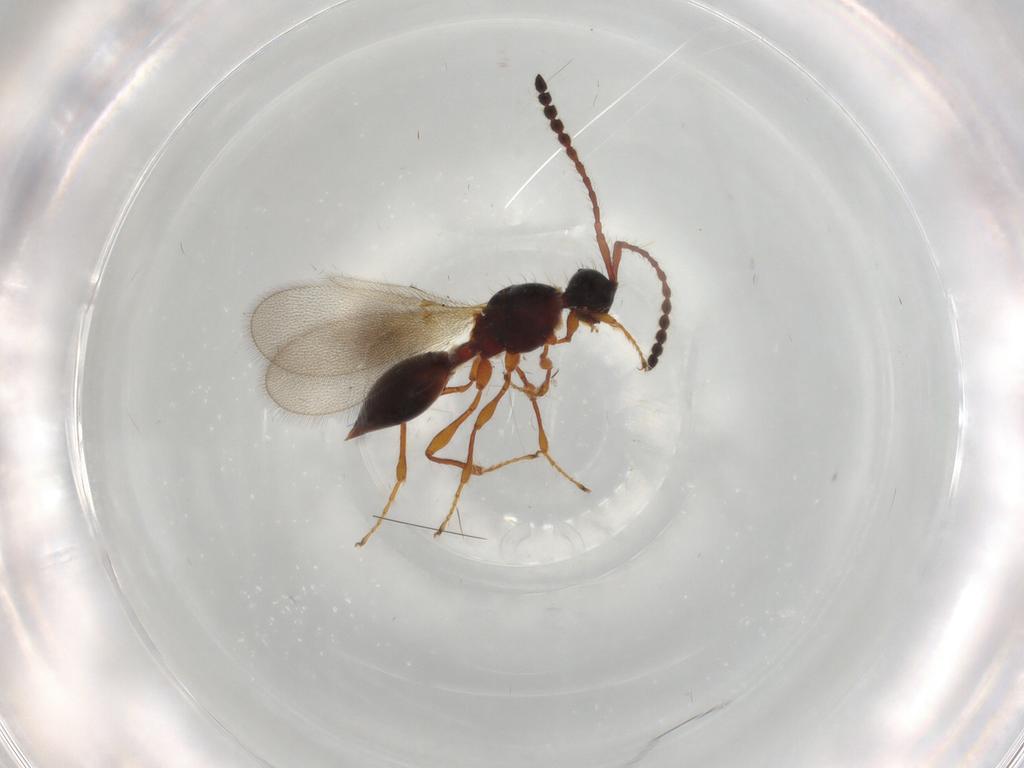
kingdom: Animalia
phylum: Arthropoda
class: Insecta
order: Hymenoptera
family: Diapriidae
